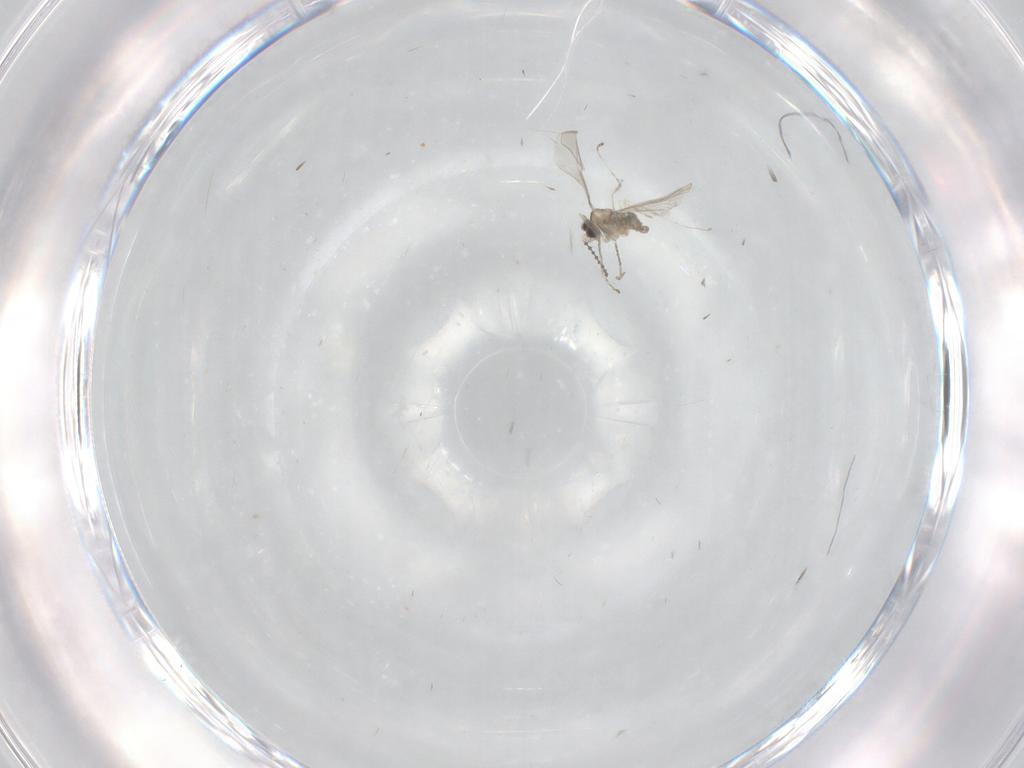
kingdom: Animalia
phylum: Arthropoda
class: Insecta
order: Diptera
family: Cecidomyiidae
